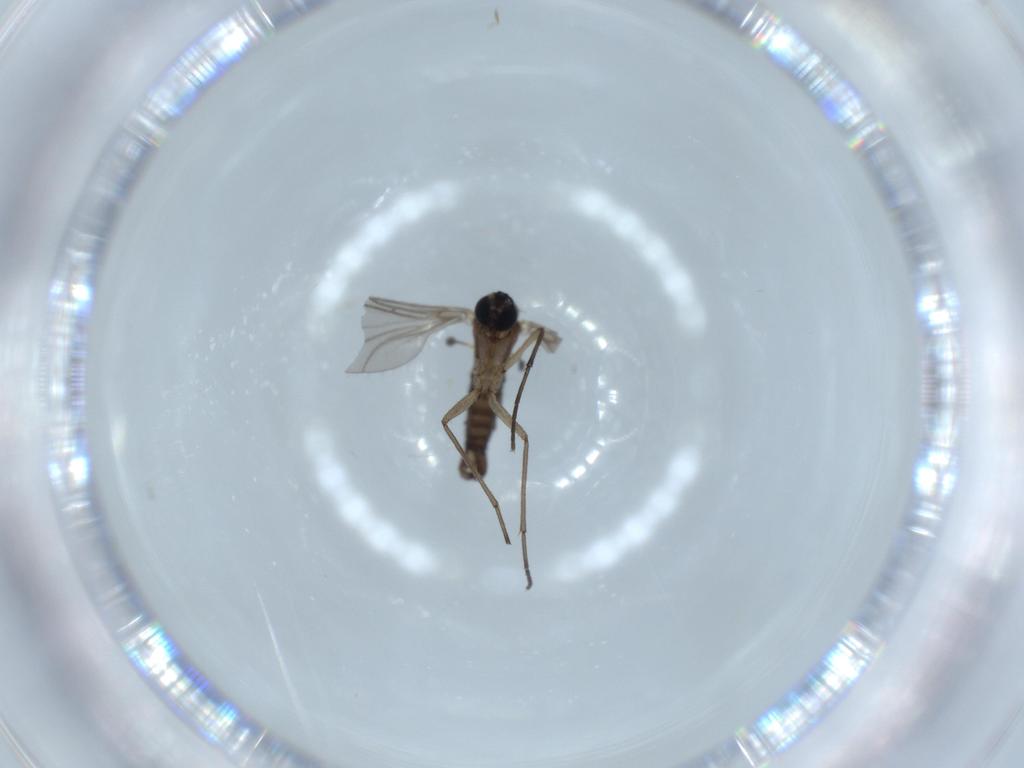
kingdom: Animalia
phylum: Arthropoda
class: Insecta
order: Diptera
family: Sciaridae
